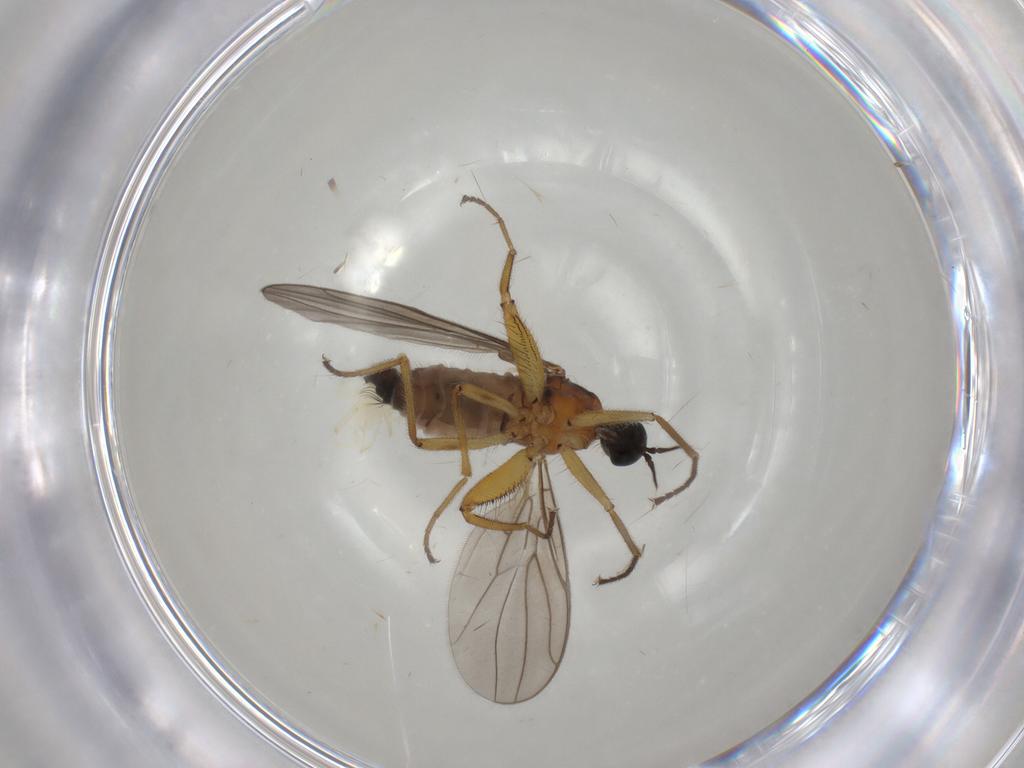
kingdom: Animalia
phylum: Arthropoda
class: Insecta
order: Diptera
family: Hybotidae
